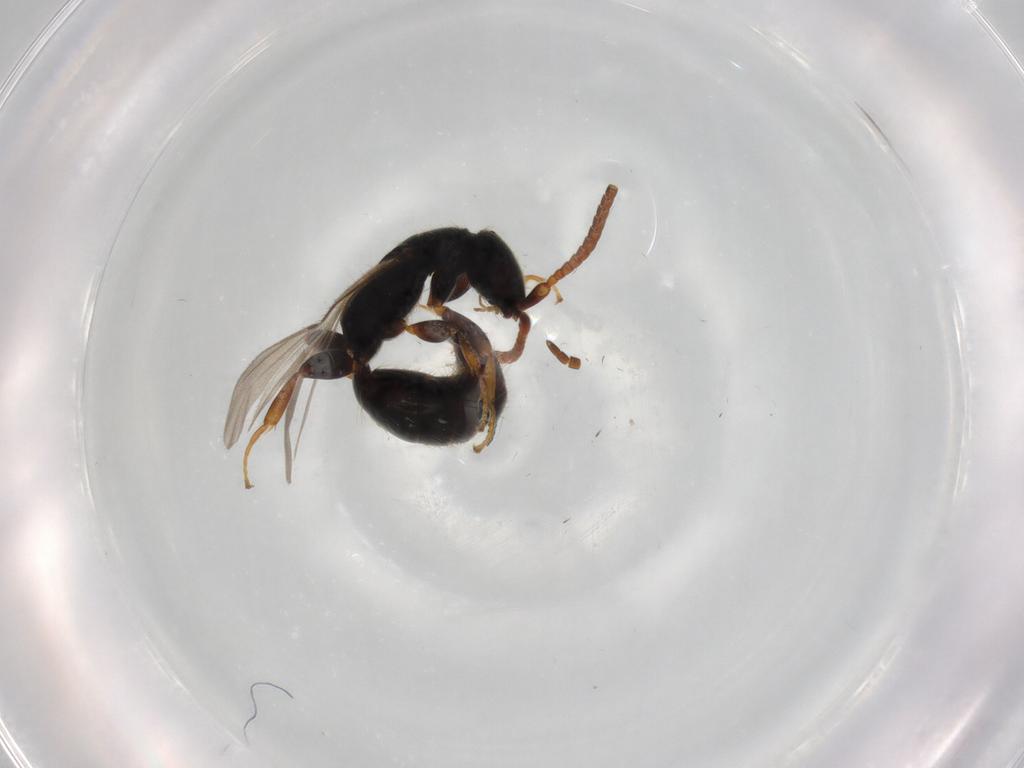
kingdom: Animalia
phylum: Arthropoda
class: Insecta
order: Hymenoptera
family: Bethylidae
